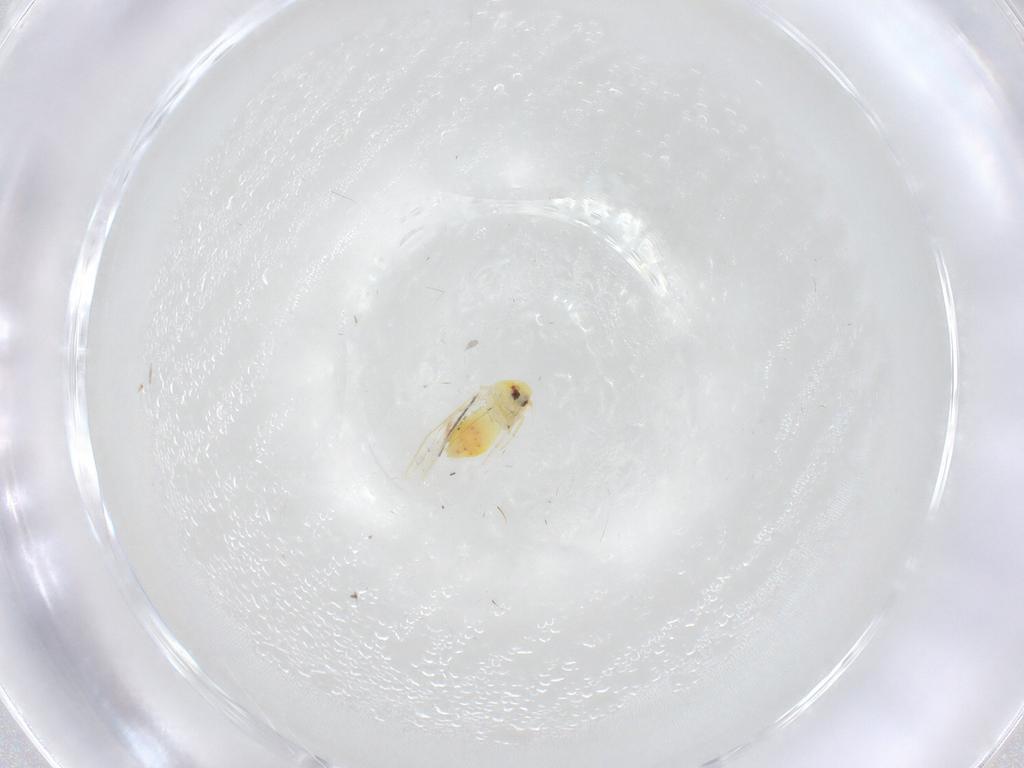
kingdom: Animalia
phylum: Arthropoda
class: Insecta
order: Hemiptera
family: Aleyrodidae
